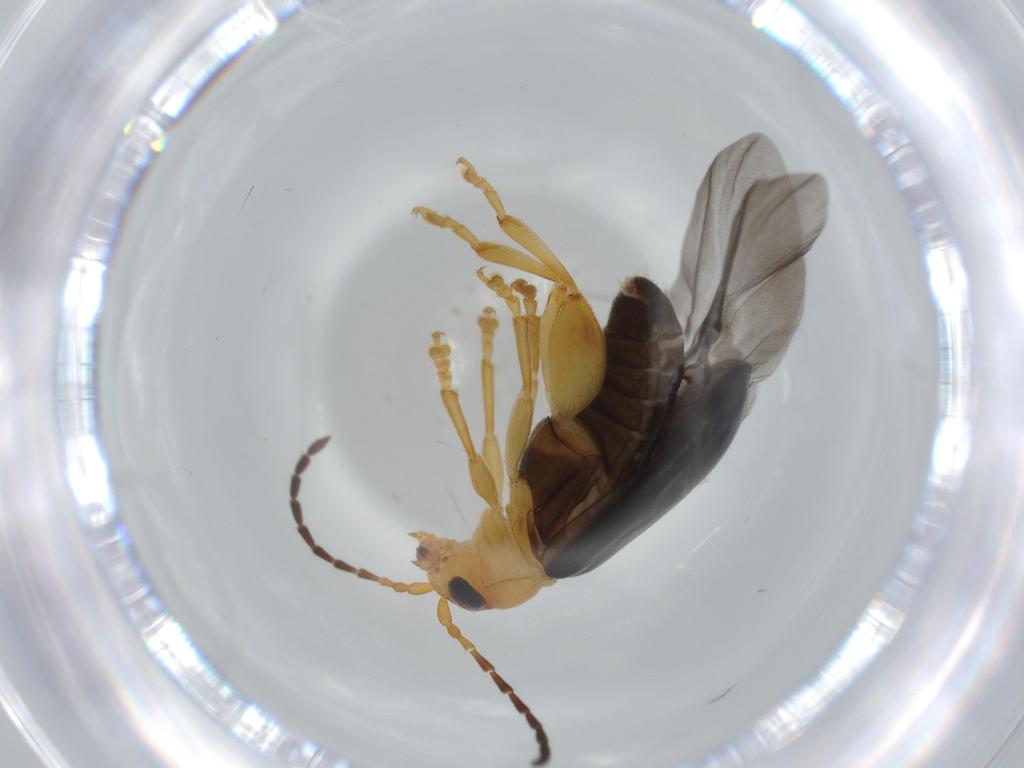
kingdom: Animalia
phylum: Arthropoda
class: Insecta
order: Coleoptera
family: Chrysomelidae
